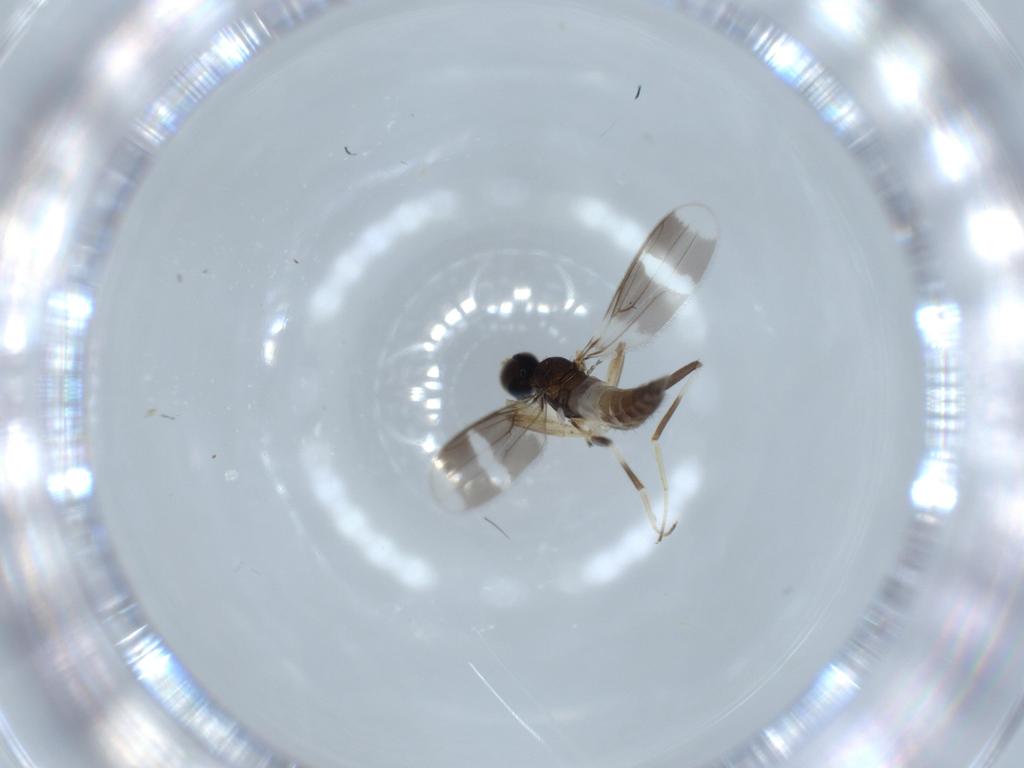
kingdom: Animalia
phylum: Arthropoda
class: Insecta
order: Diptera
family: Hybotidae
